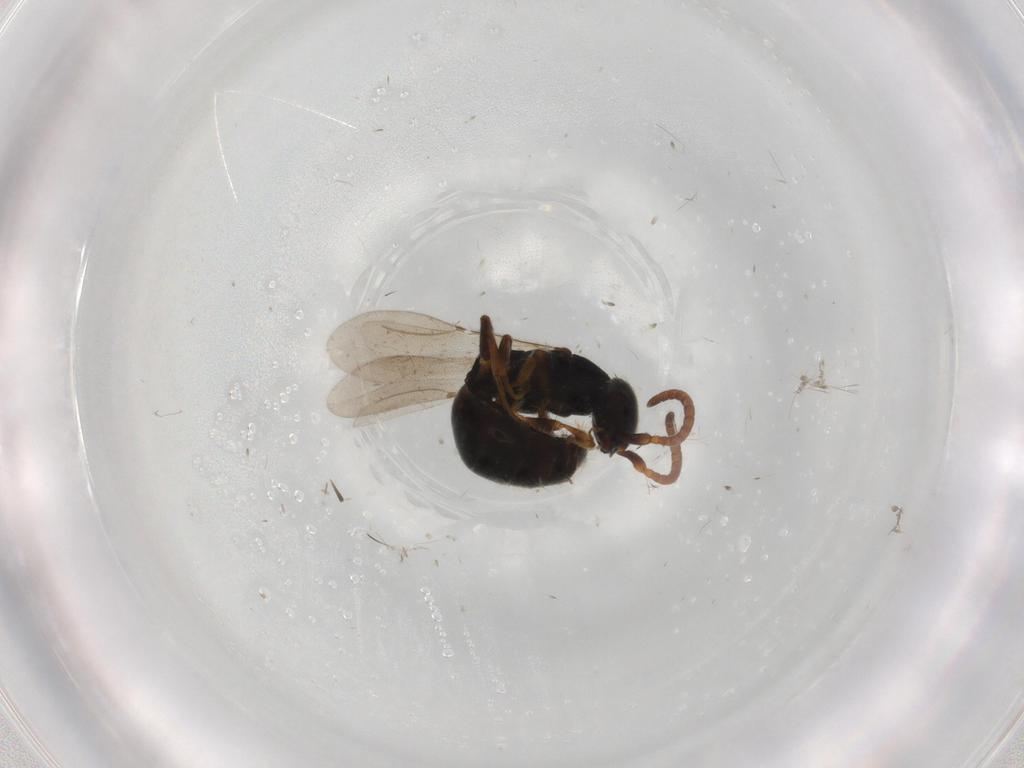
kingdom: Animalia
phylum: Arthropoda
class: Insecta
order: Hymenoptera
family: Bethylidae
